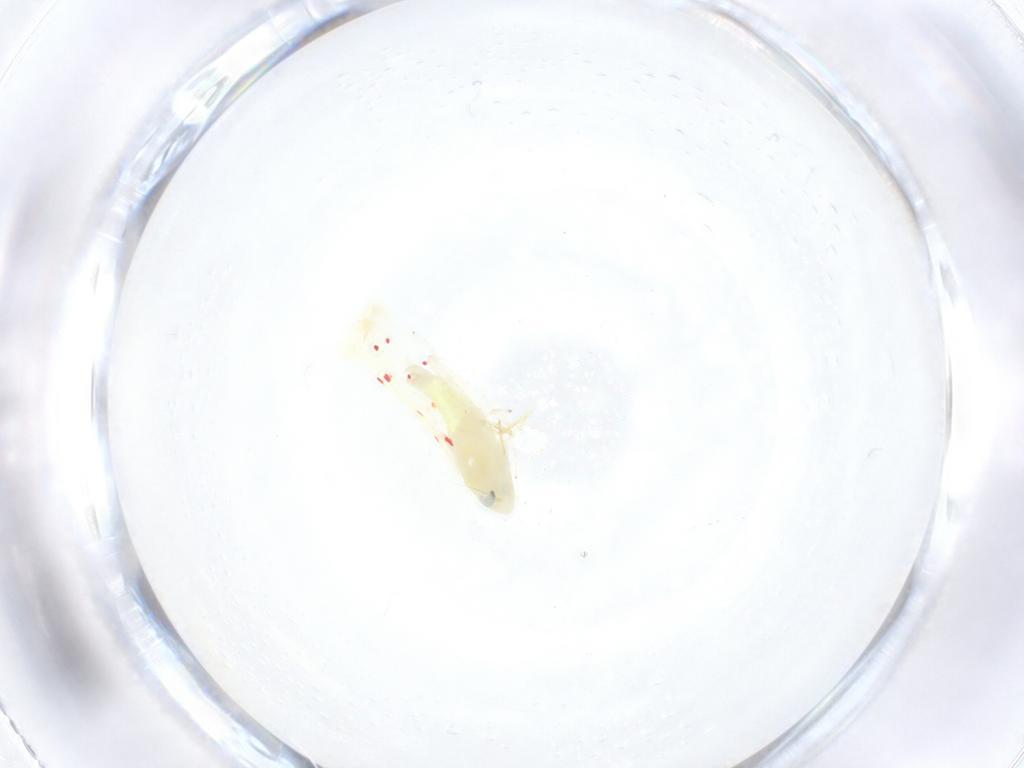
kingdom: Animalia
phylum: Arthropoda
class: Insecta
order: Hemiptera
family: Cicadellidae
